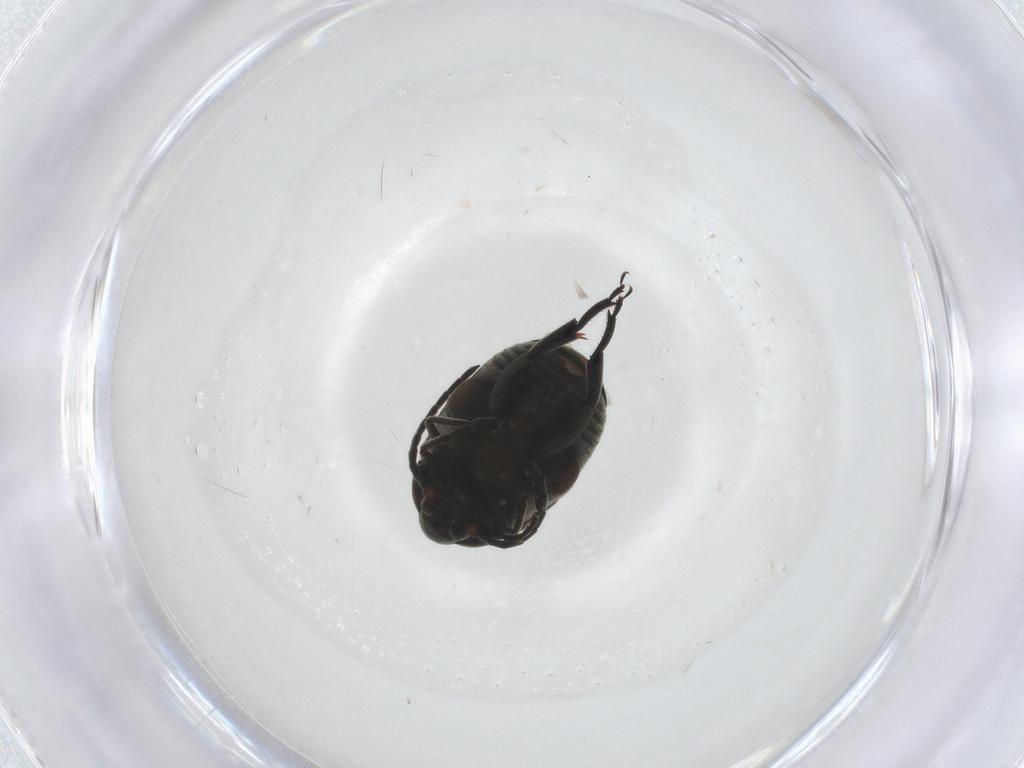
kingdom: Animalia
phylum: Arthropoda
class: Insecta
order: Coleoptera
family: Chrysomelidae
